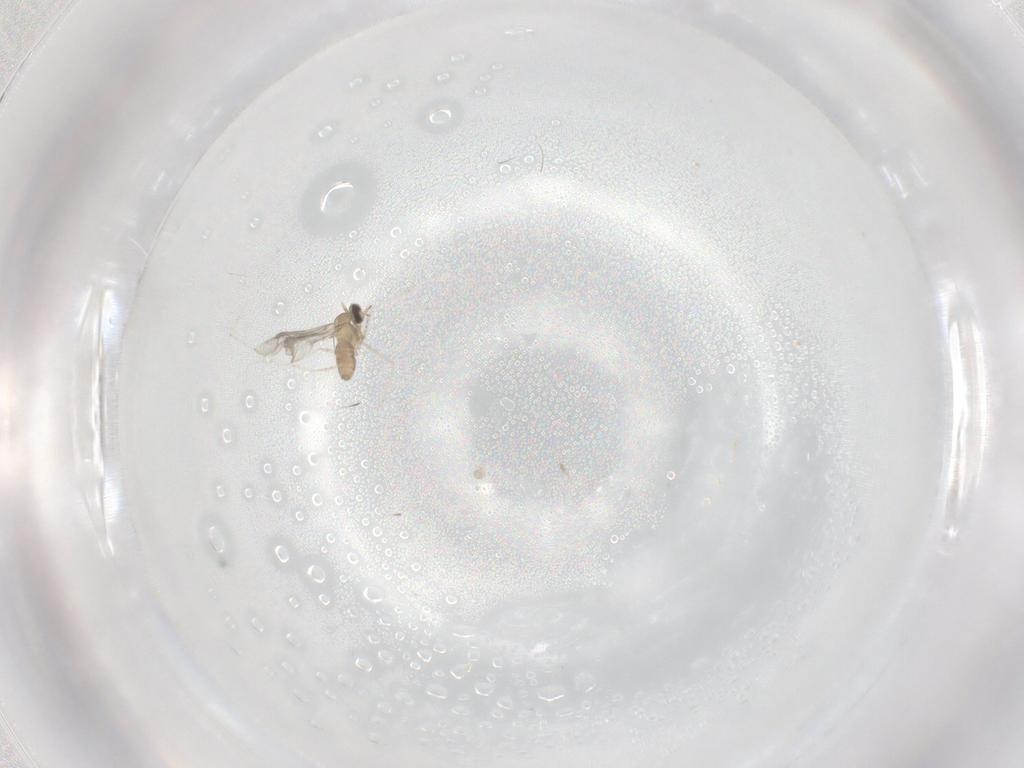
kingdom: Animalia
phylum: Arthropoda
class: Insecta
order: Diptera
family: Cecidomyiidae
